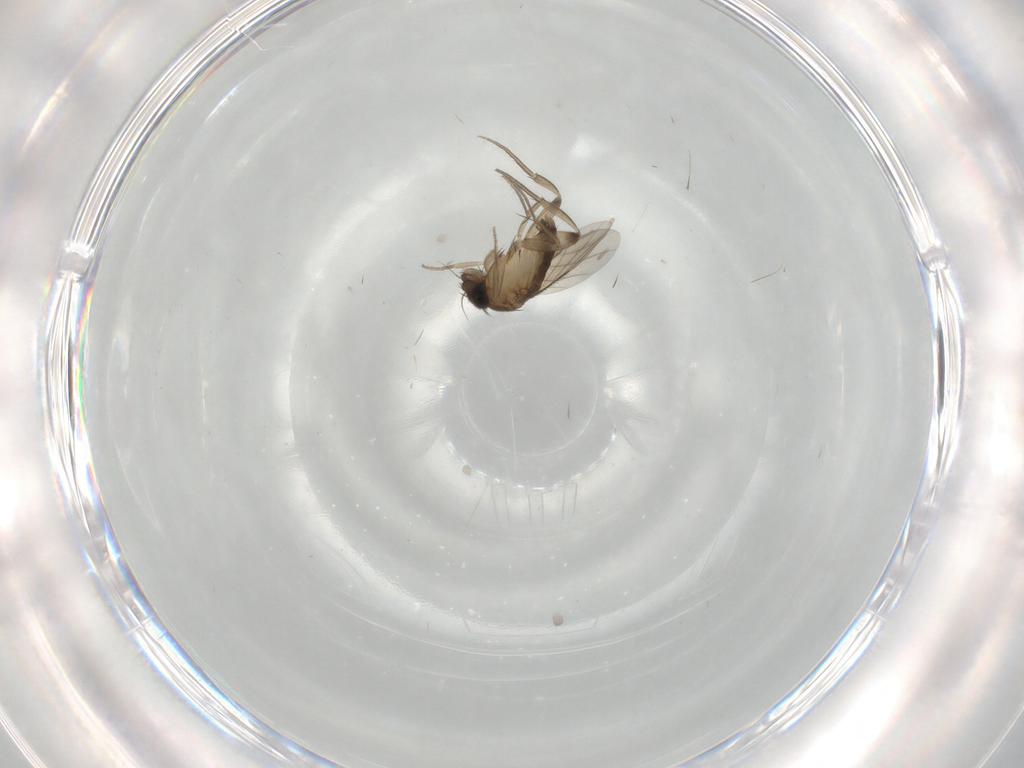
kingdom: Animalia
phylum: Arthropoda
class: Insecta
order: Diptera
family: Phoridae
